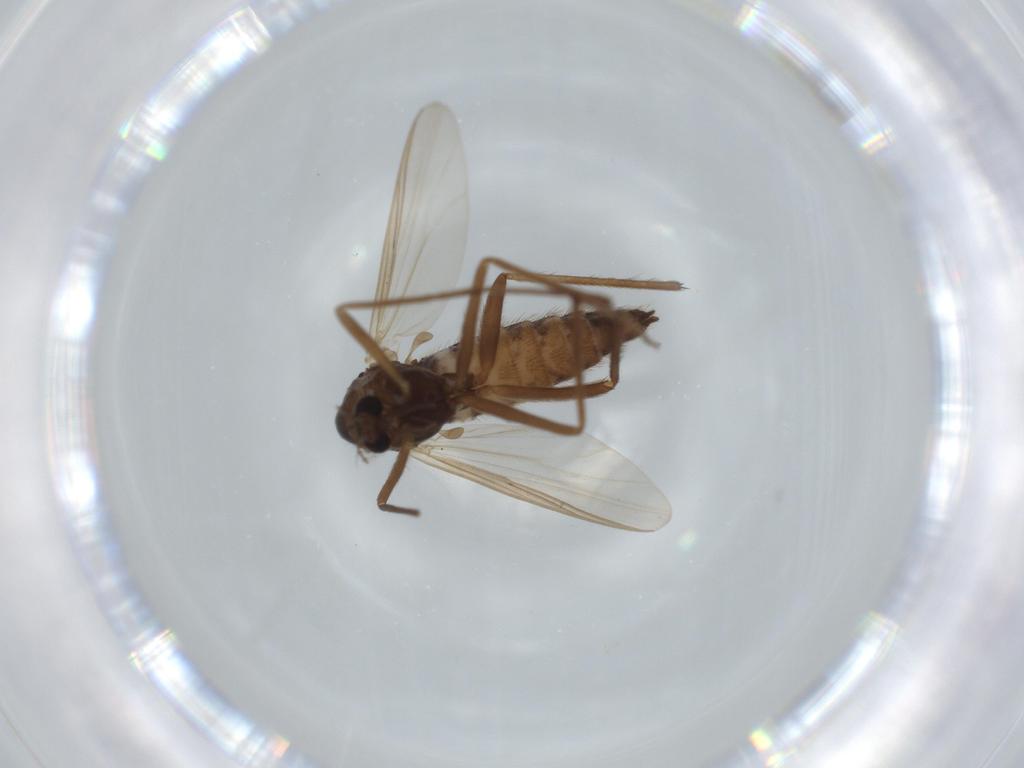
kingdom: Animalia
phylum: Arthropoda
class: Insecta
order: Diptera
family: Chironomidae
